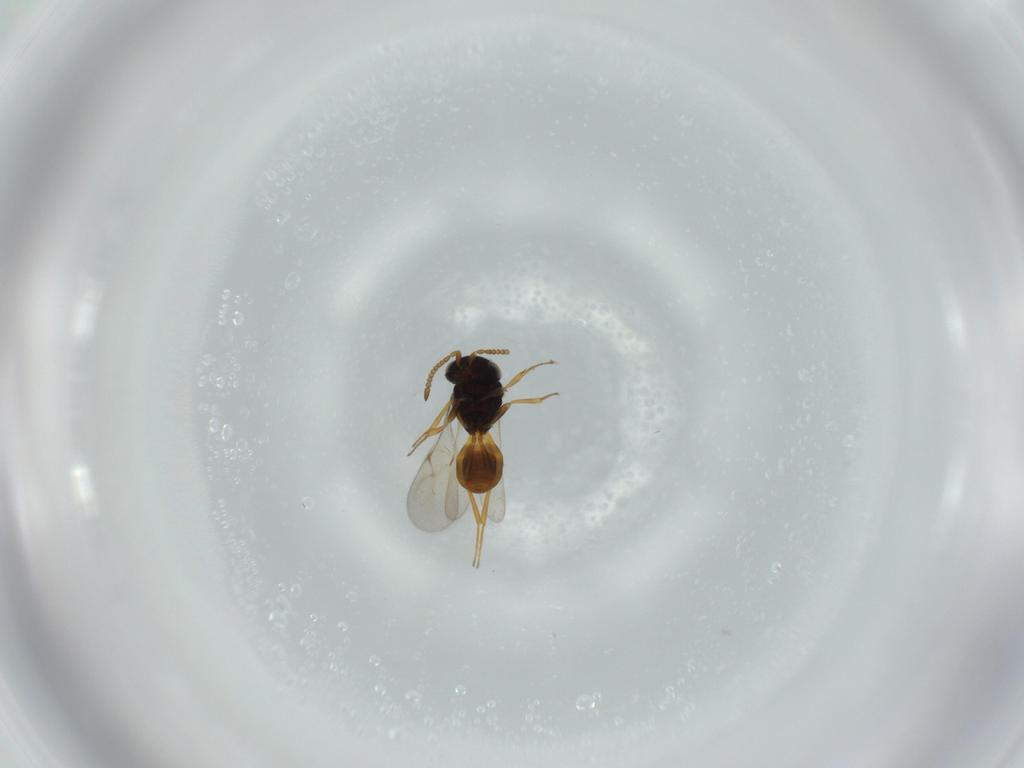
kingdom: Animalia
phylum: Arthropoda
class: Insecta
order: Hymenoptera
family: Scelionidae
